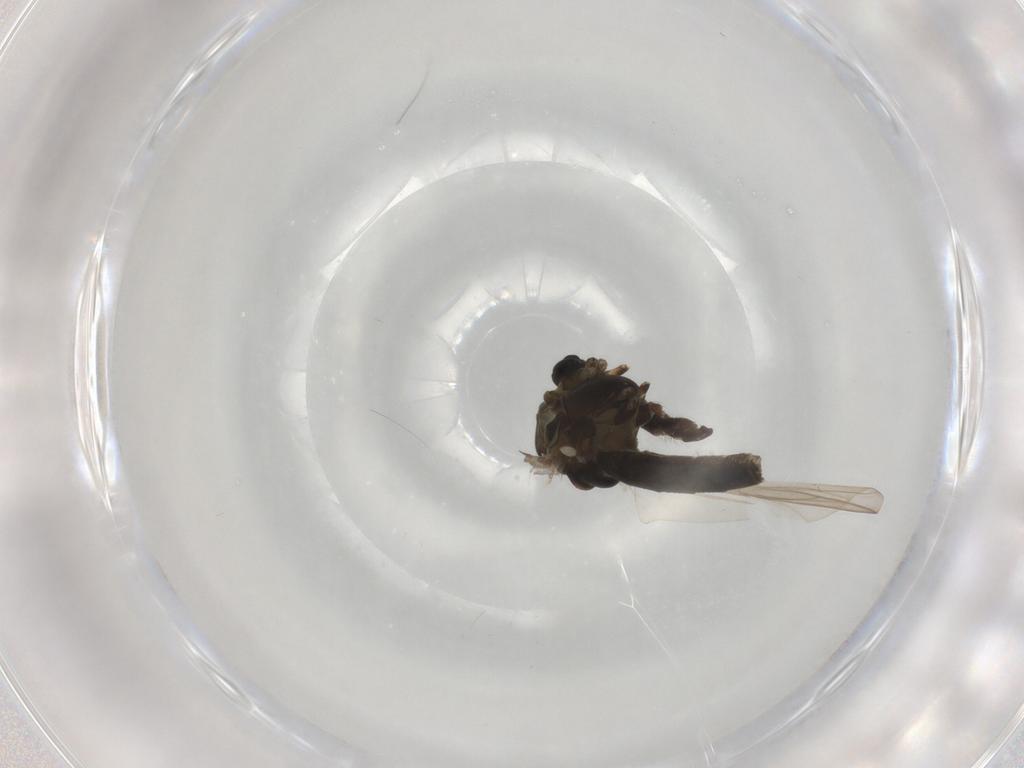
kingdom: Animalia
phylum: Arthropoda
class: Insecta
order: Diptera
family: Chironomidae
